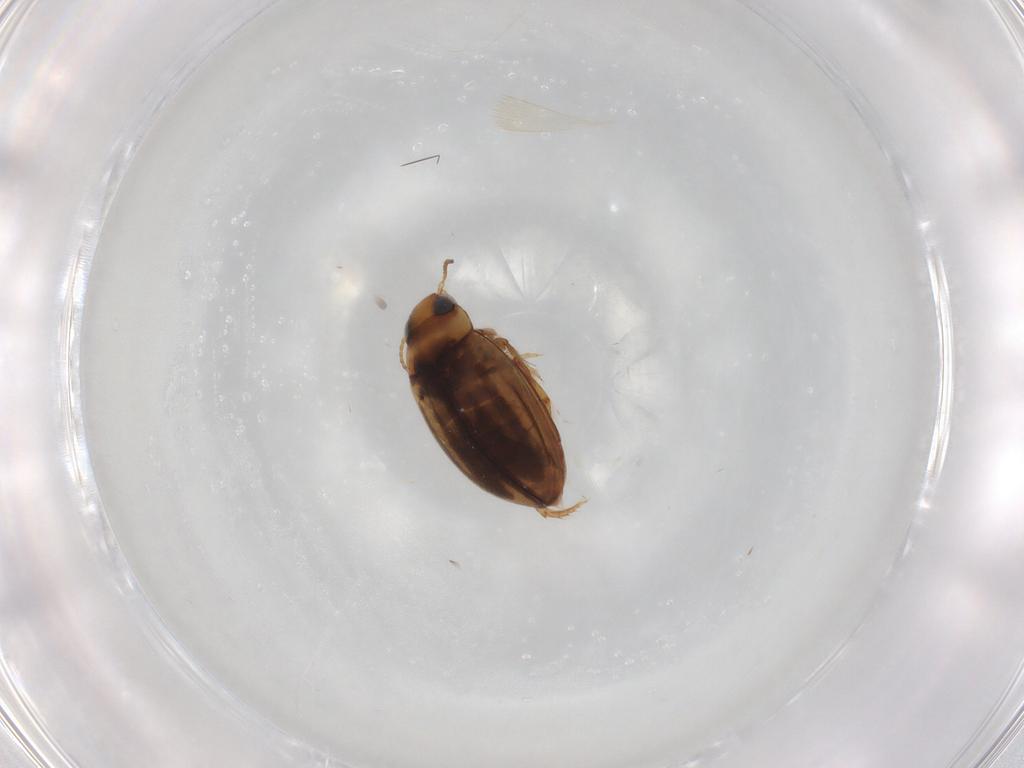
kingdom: Animalia
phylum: Arthropoda
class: Insecta
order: Coleoptera
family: Dytiscidae
